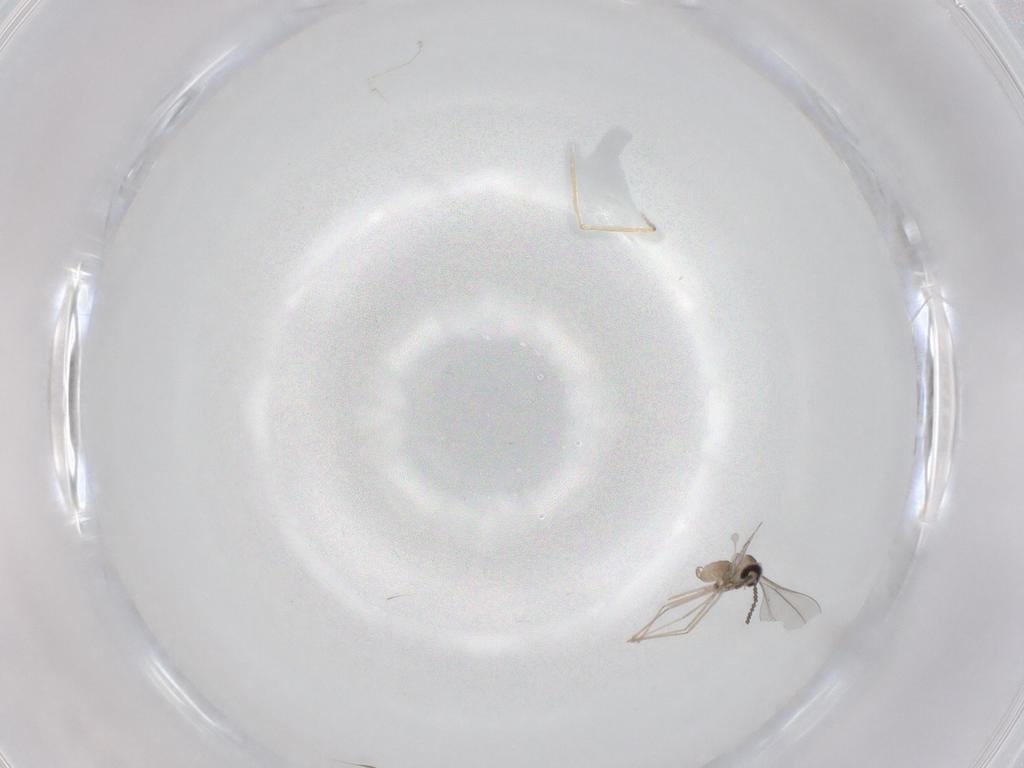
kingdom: Animalia
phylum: Arthropoda
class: Insecta
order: Diptera
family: Cecidomyiidae
